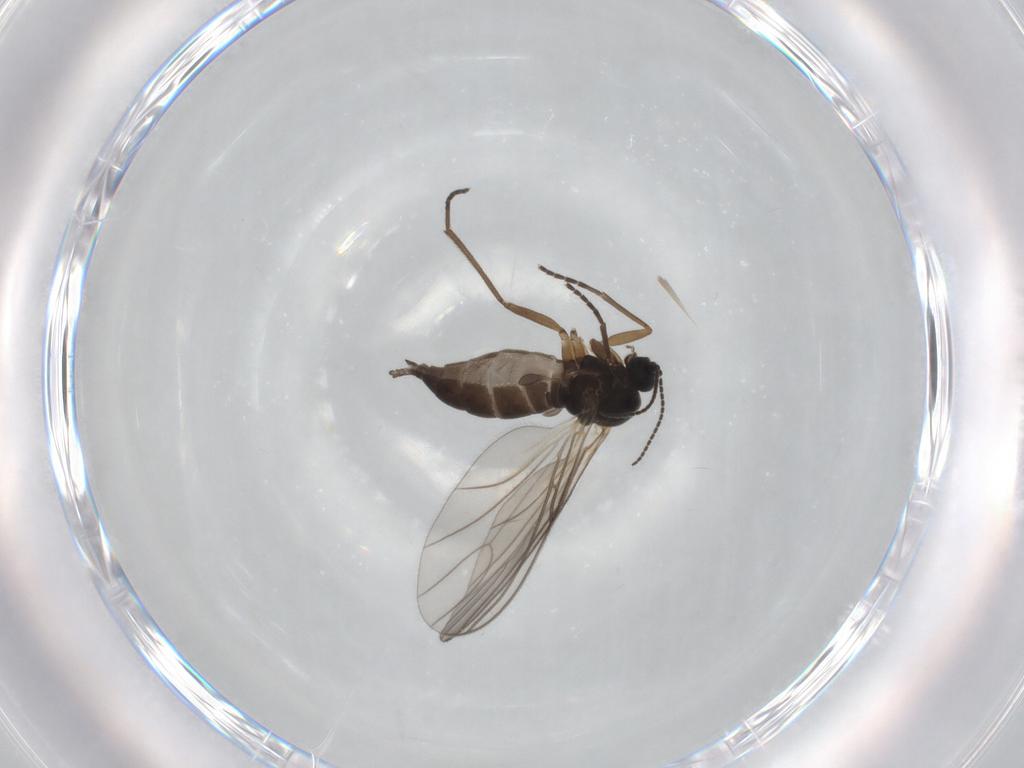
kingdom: Animalia
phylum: Arthropoda
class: Insecta
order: Diptera
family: Sciaridae
